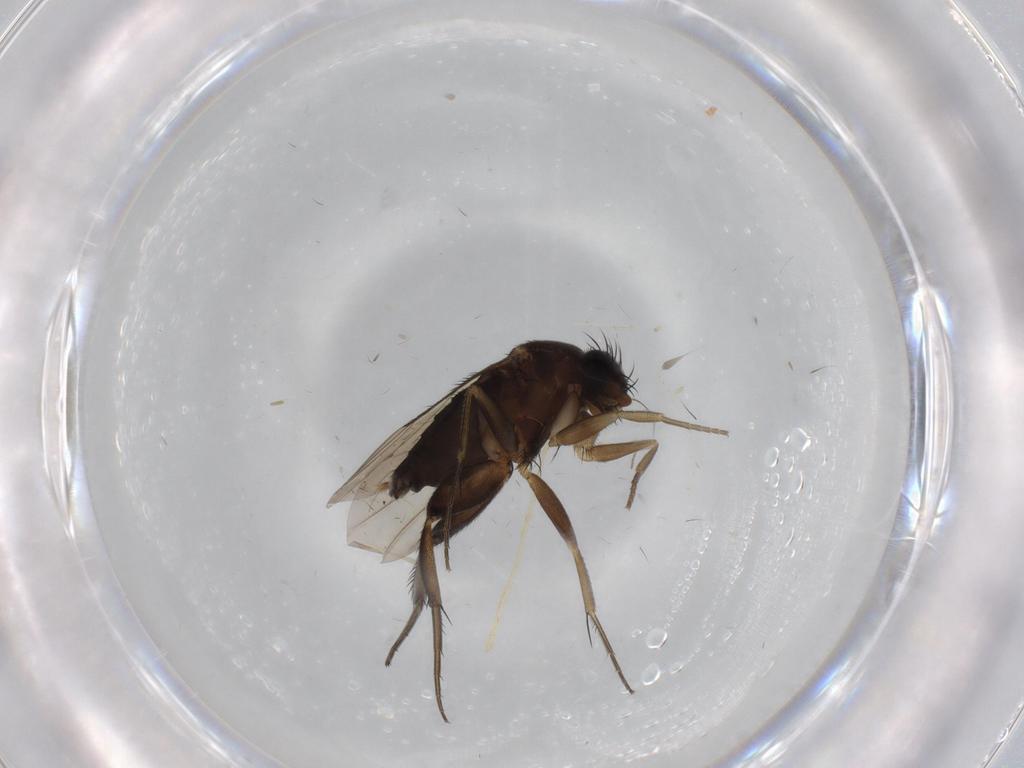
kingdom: Animalia
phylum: Arthropoda
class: Insecta
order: Diptera
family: Phoridae
